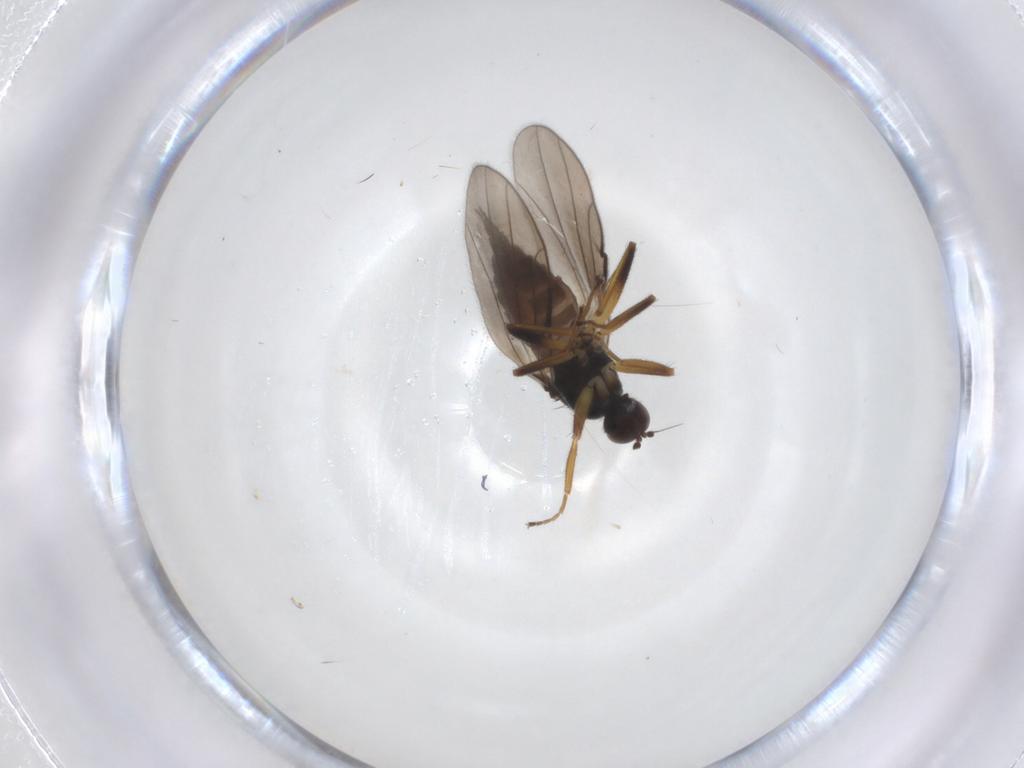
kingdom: Animalia
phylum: Arthropoda
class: Insecta
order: Diptera
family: Hybotidae
